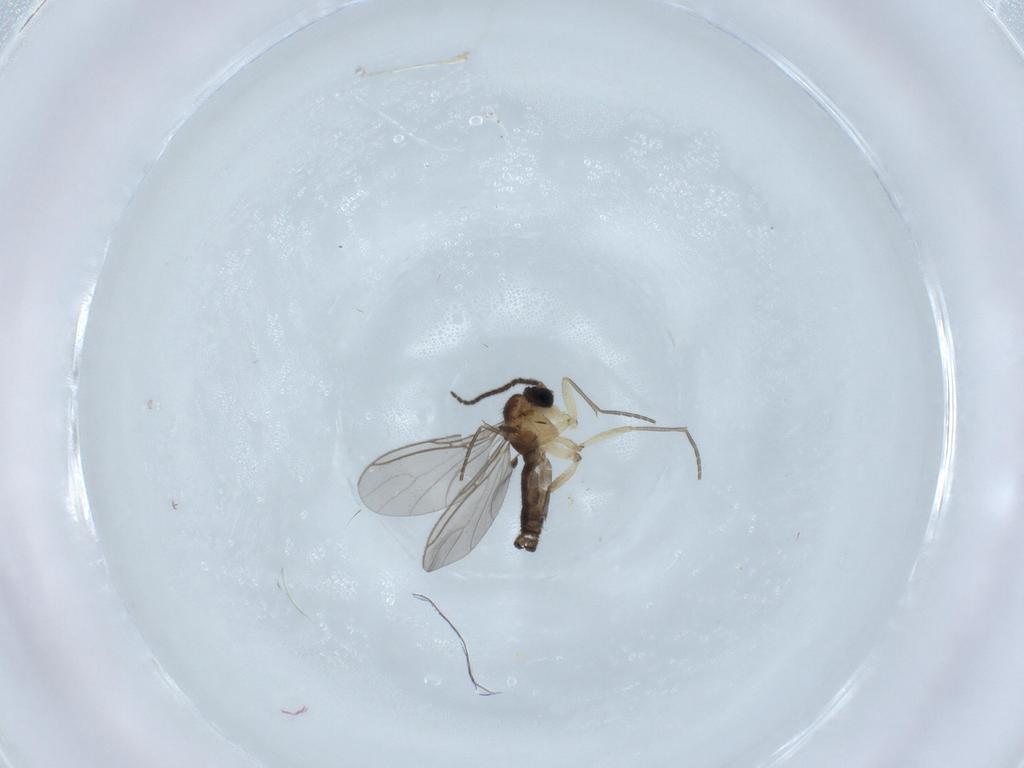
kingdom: Animalia
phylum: Arthropoda
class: Insecta
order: Diptera
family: Sciaridae
